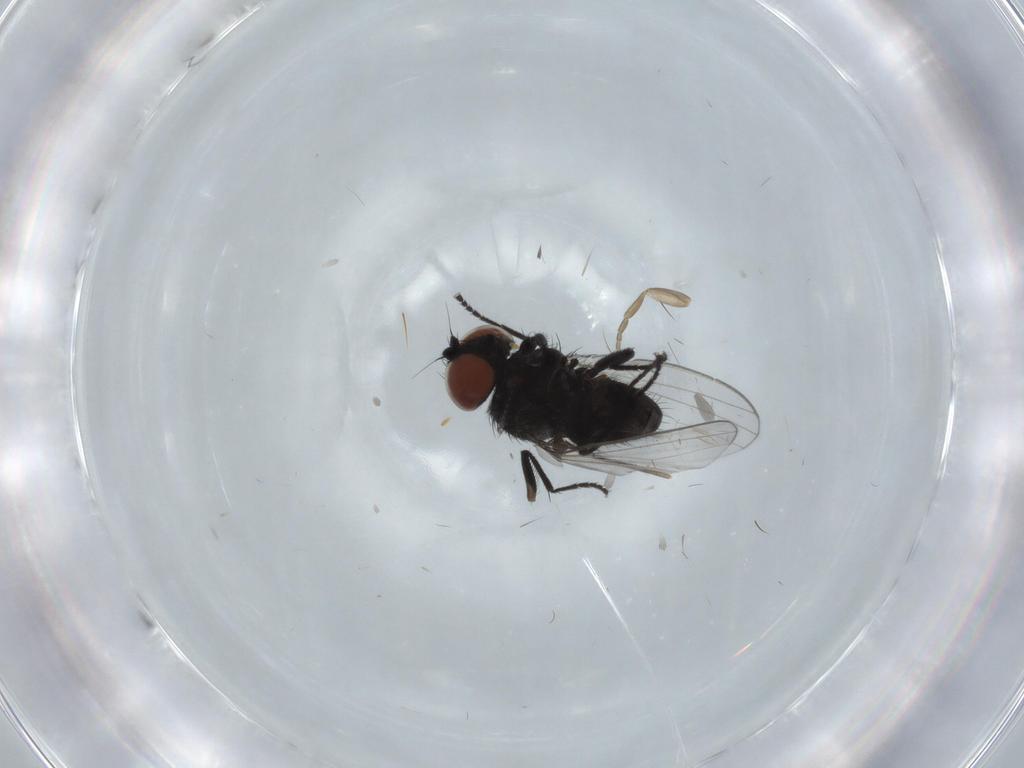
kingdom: Animalia
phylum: Arthropoda
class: Insecta
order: Diptera
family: Milichiidae
